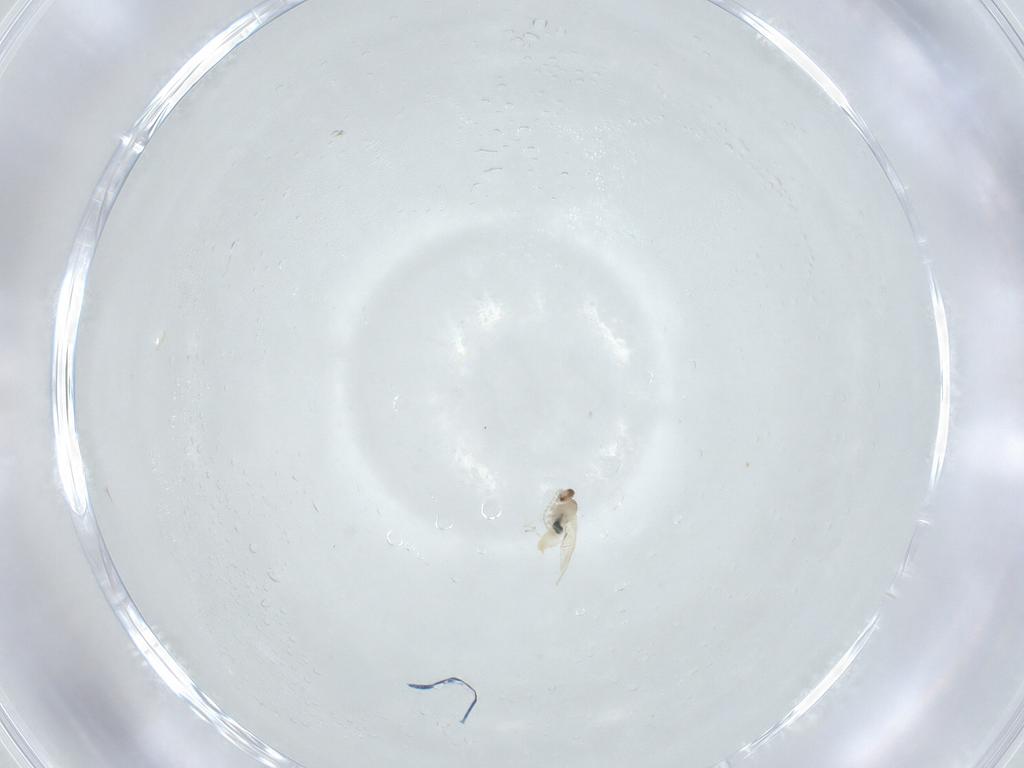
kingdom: Animalia
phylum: Arthropoda
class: Insecta
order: Diptera
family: Cecidomyiidae
